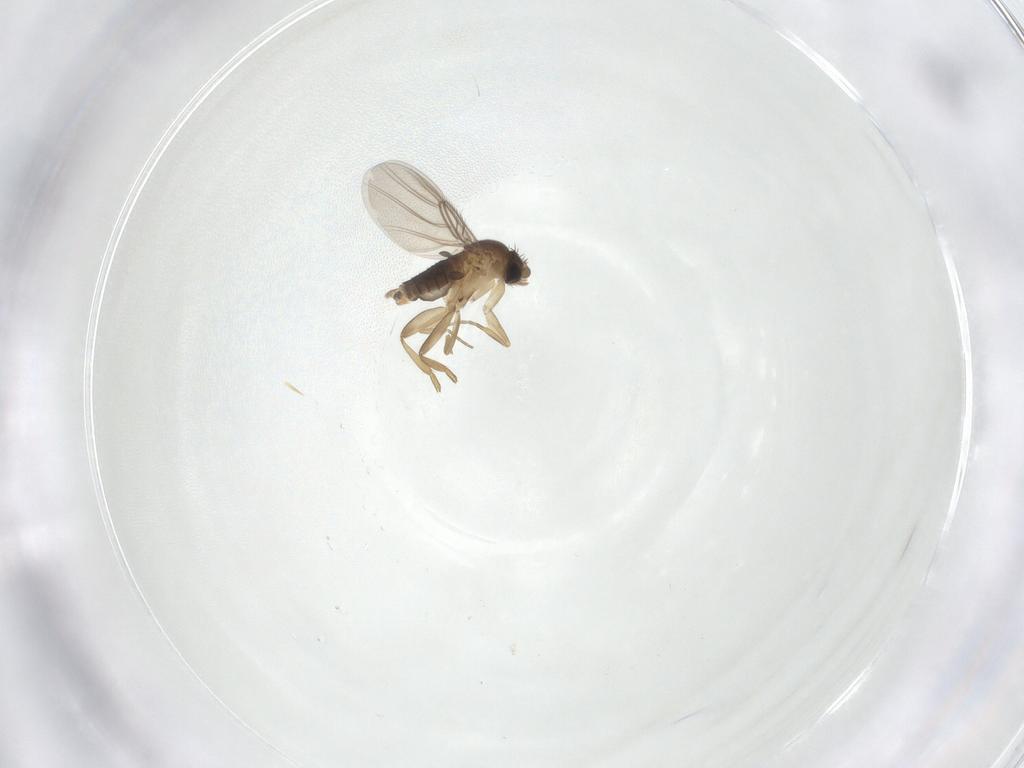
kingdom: Animalia
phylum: Arthropoda
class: Insecta
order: Diptera
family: Phoridae
